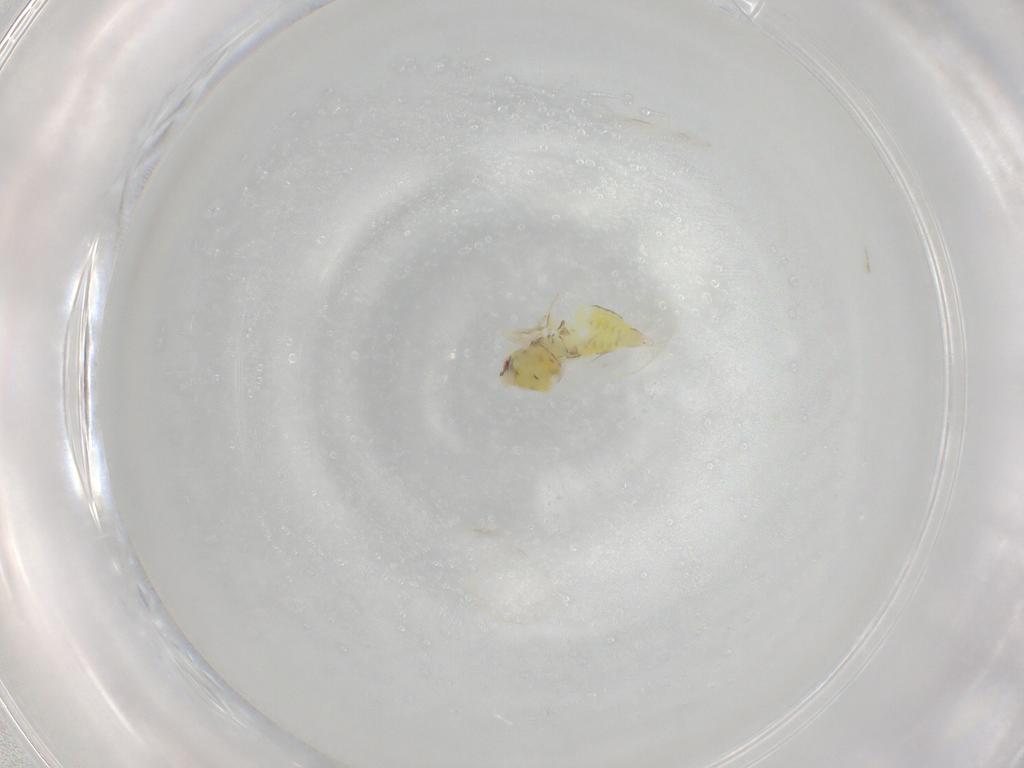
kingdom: Animalia
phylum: Arthropoda
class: Insecta
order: Hemiptera
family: Aleyrodidae
